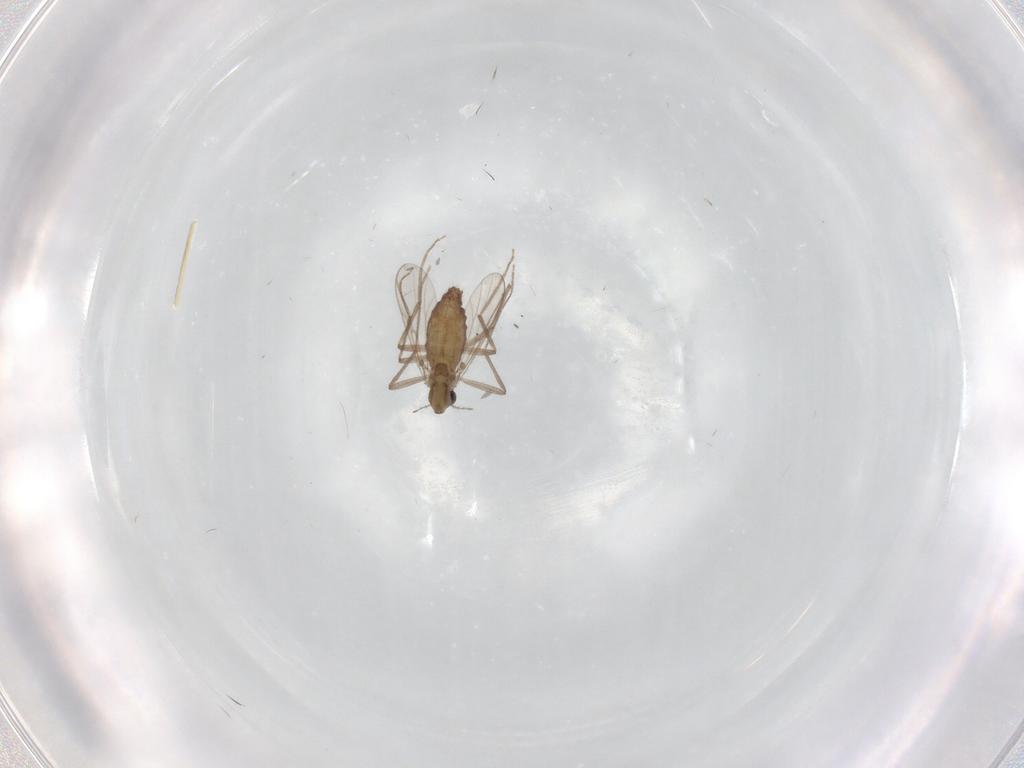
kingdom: Animalia
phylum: Arthropoda
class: Insecta
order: Diptera
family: Chironomidae
